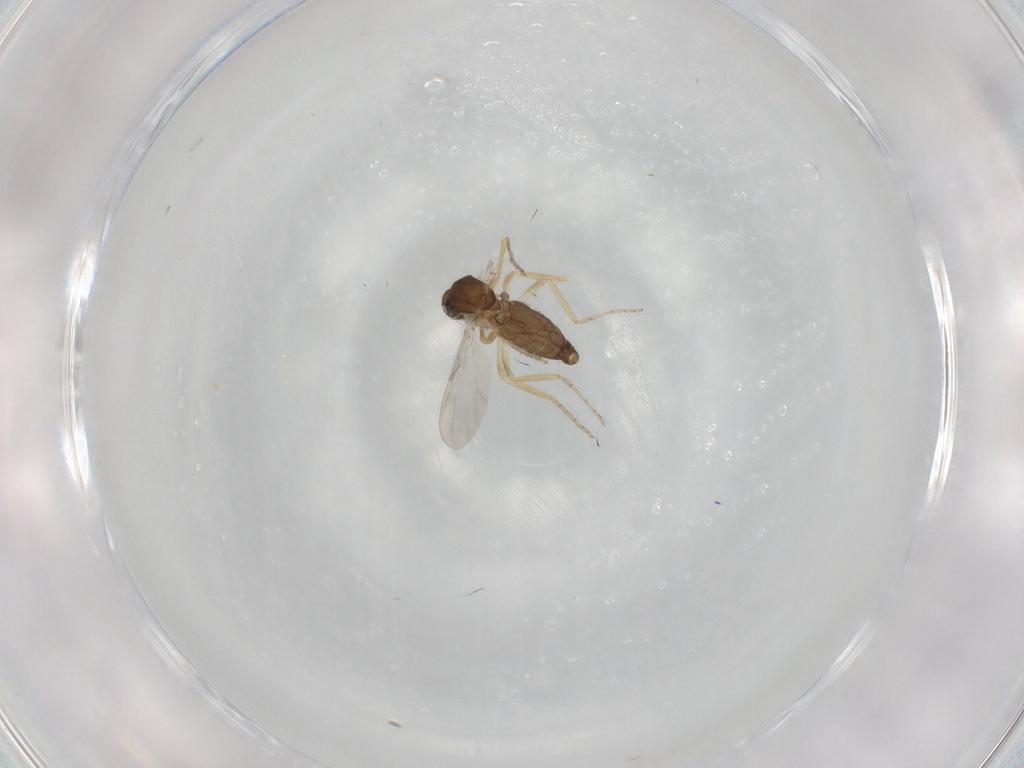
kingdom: Animalia
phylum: Arthropoda
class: Insecta
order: Diptera
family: Ceratopogonidae
